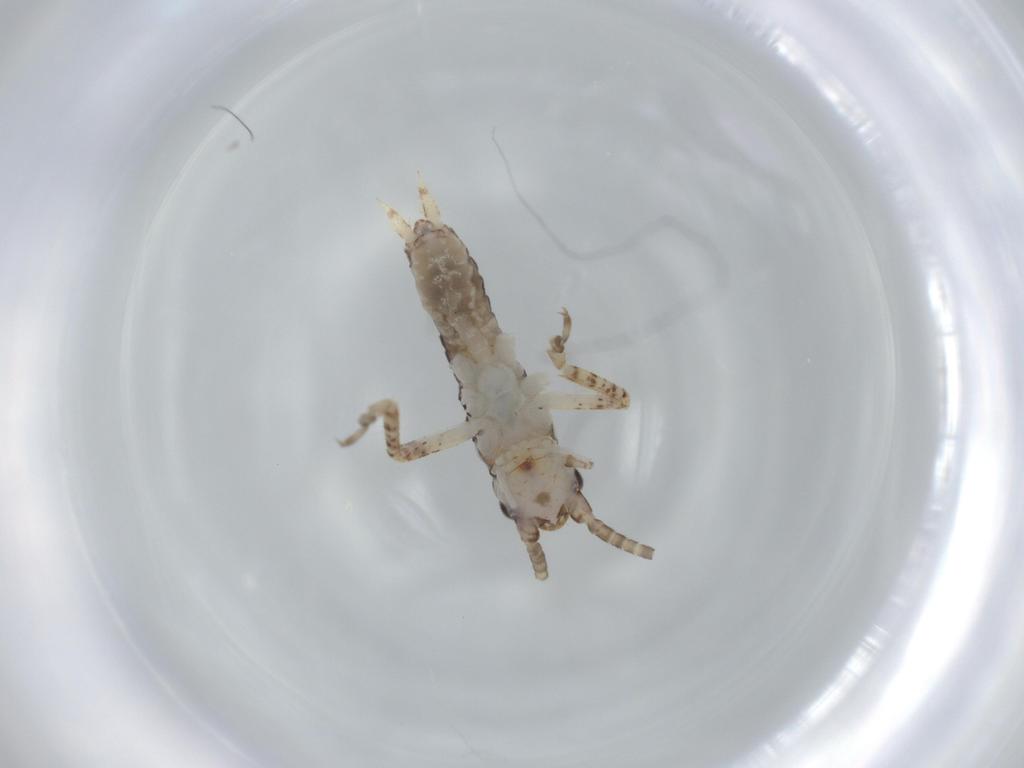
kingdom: Animalia
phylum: Arthropoda
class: Insecta
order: Orthoptera
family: Gryllidae
